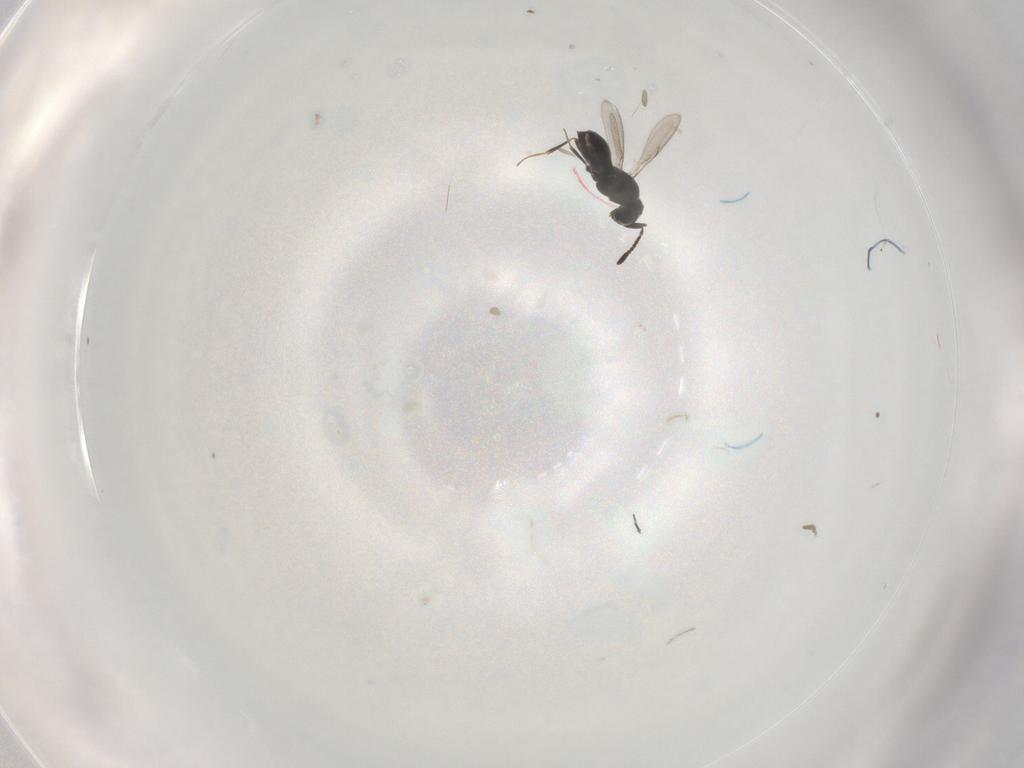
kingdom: Animalia
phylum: Arthropoda
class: Insecta
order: Hymenoptera
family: Scelionidae
